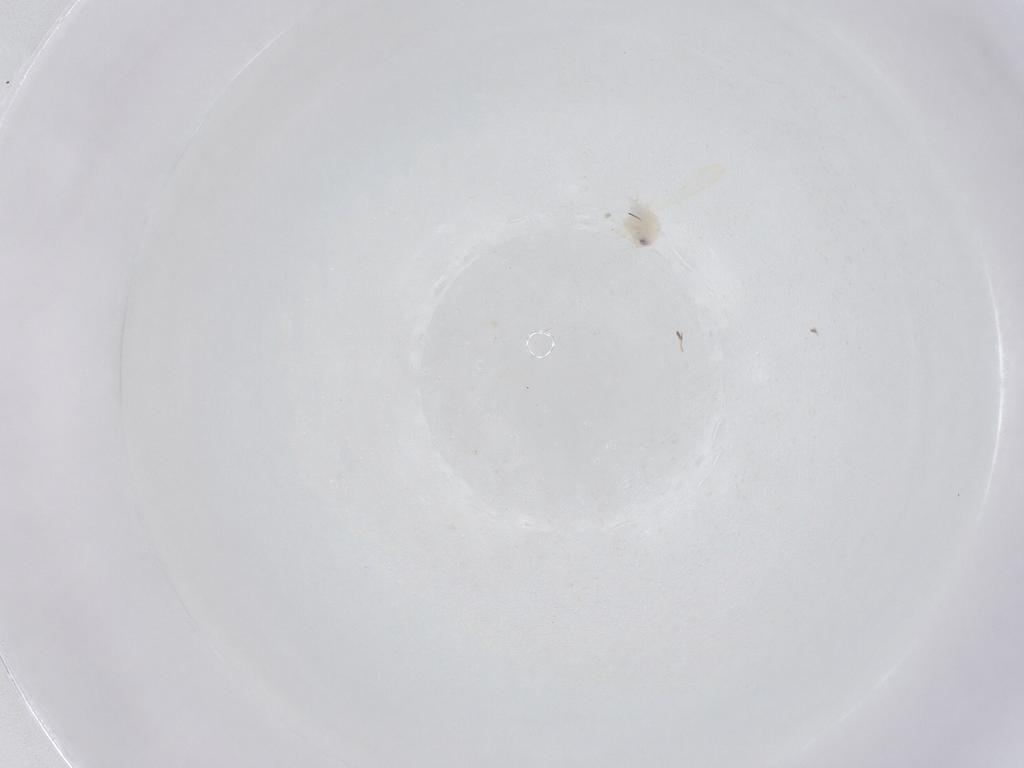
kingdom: Animalia
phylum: Arthropoda
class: Insecta
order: Hemiptera
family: Aleyrodidae
